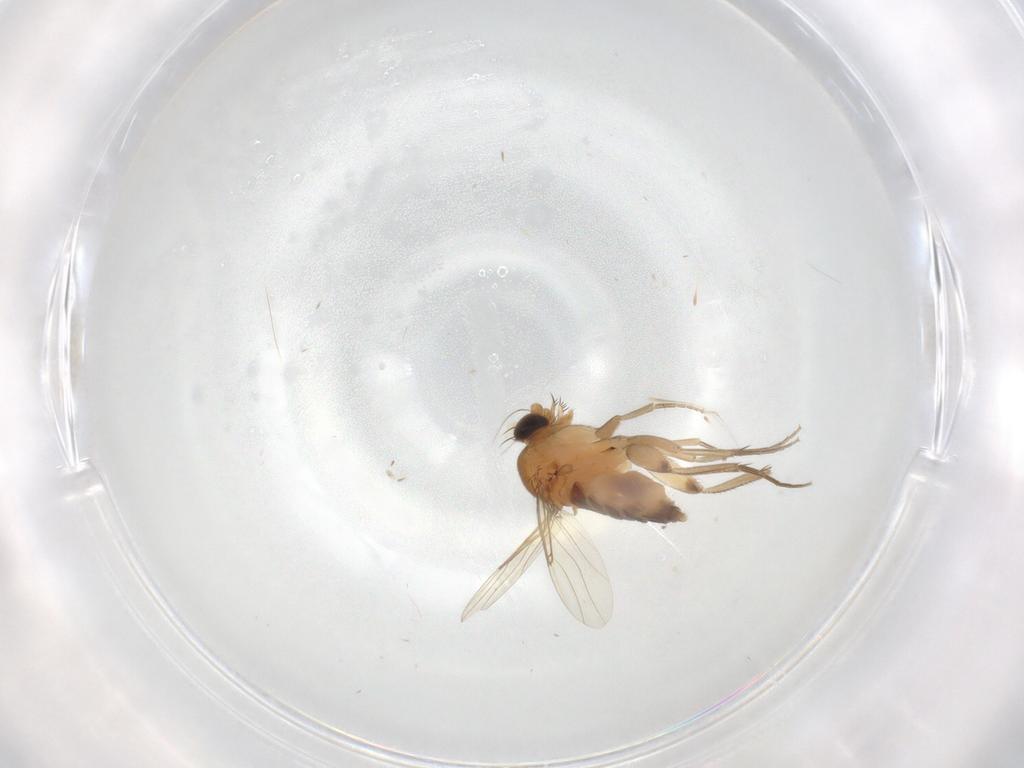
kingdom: Animalia
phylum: Arthropoda
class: Insecta
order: Diptera
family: Phoridae
